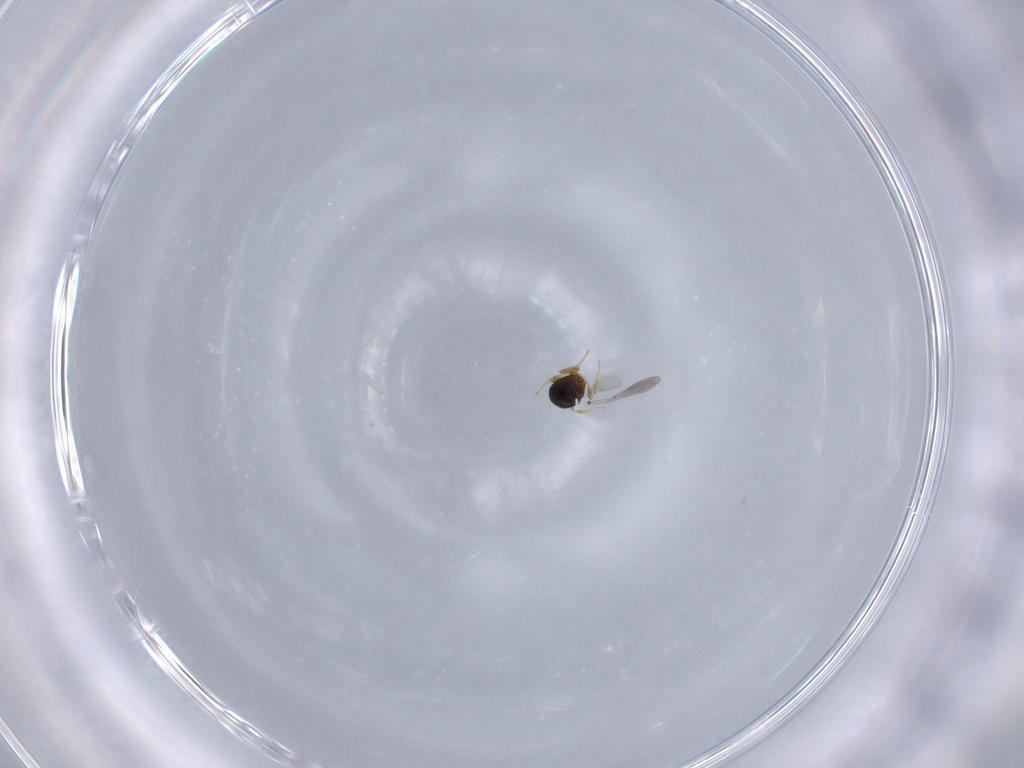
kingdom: Animalia
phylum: Arthropoda
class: Insecta
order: Hymenoptera
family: Platygastridae
